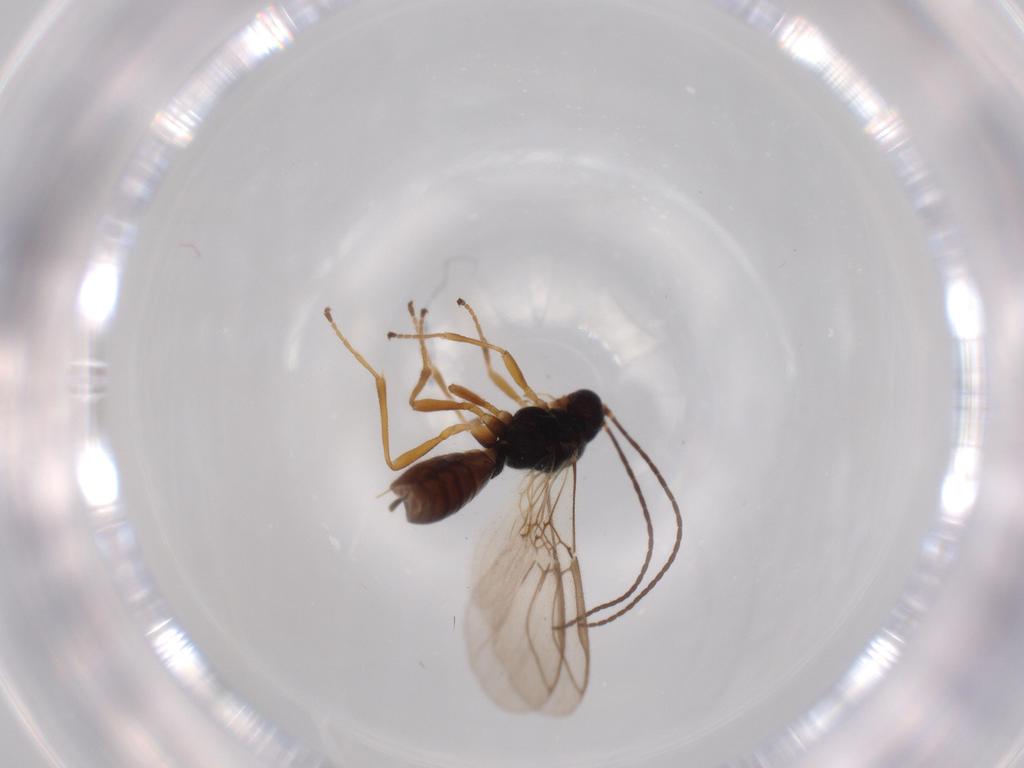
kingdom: Animalia
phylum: Arthropoda
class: Insecta
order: Hymenoptera
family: Braconidae
